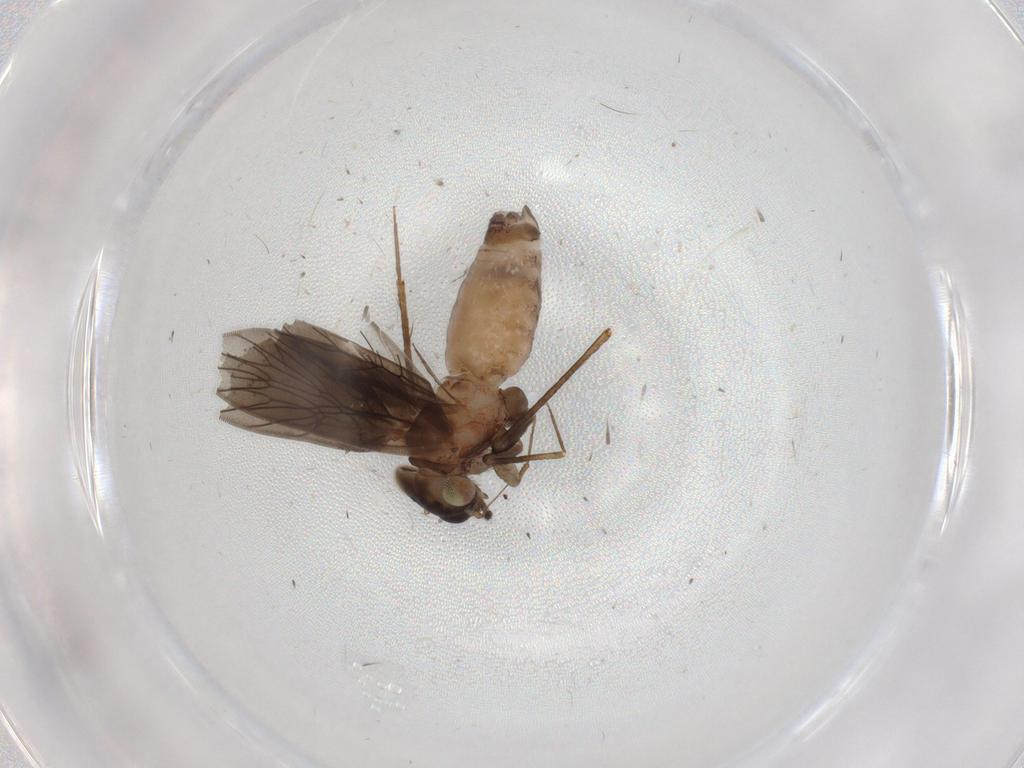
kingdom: Animalia
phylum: Arthropoda
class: Insecta
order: Psocodea
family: Lepidopsocidae
